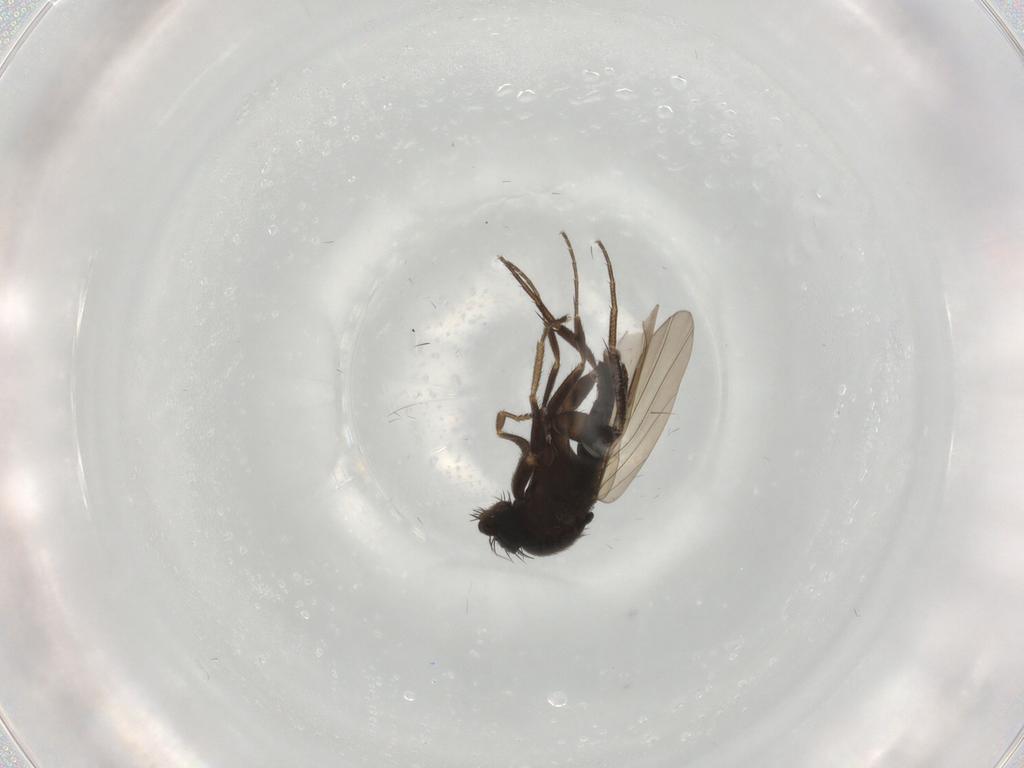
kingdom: Animalia
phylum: Arthropoda
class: Insecta
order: Diptera
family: Phoridae
